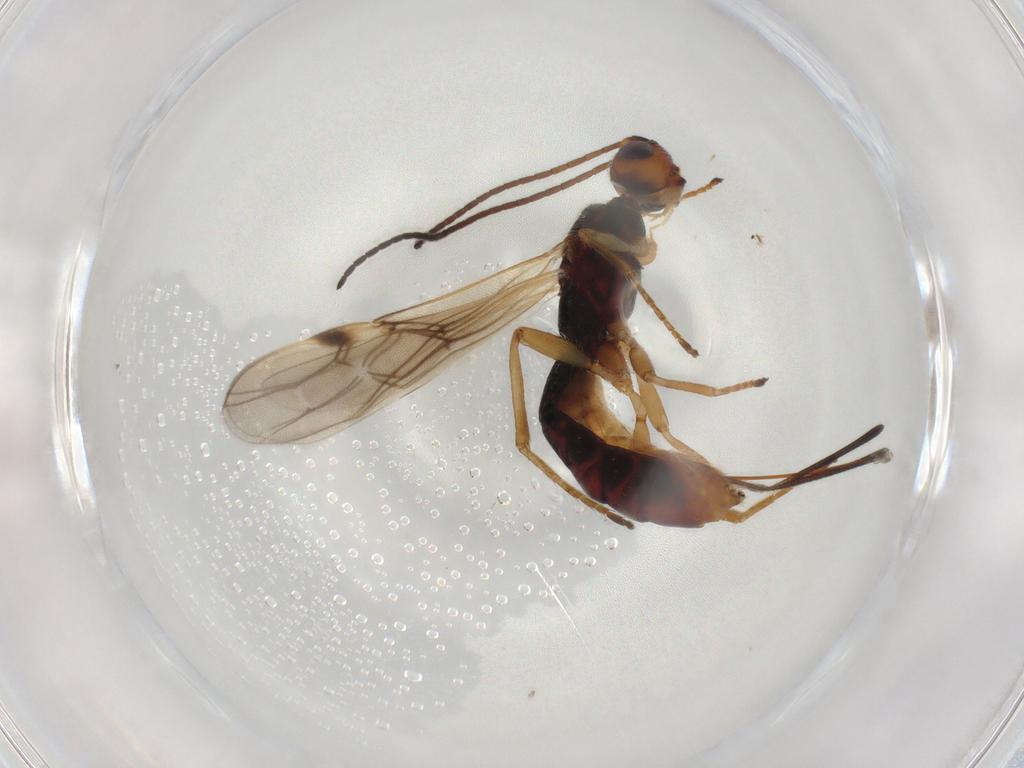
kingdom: Animalia
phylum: Arthropoda
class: Insecta
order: Hymenoptera
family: Braconidae
